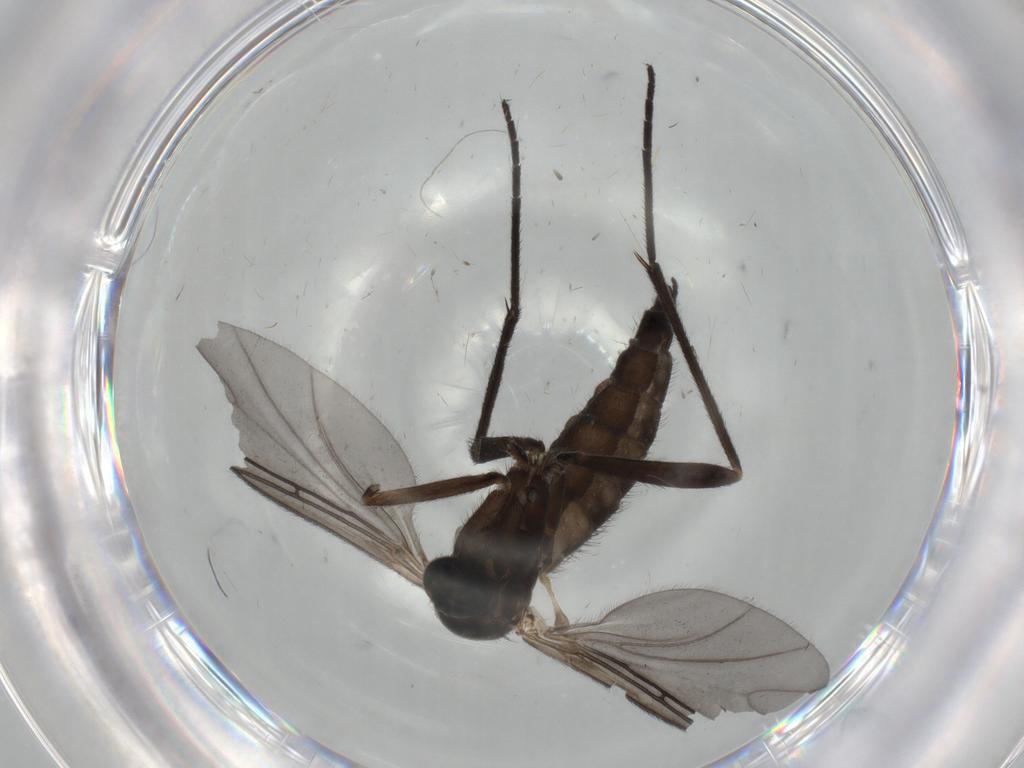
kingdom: Animalia
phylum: Arthropoda
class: Insecta
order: Diptera
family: Sciaridae
